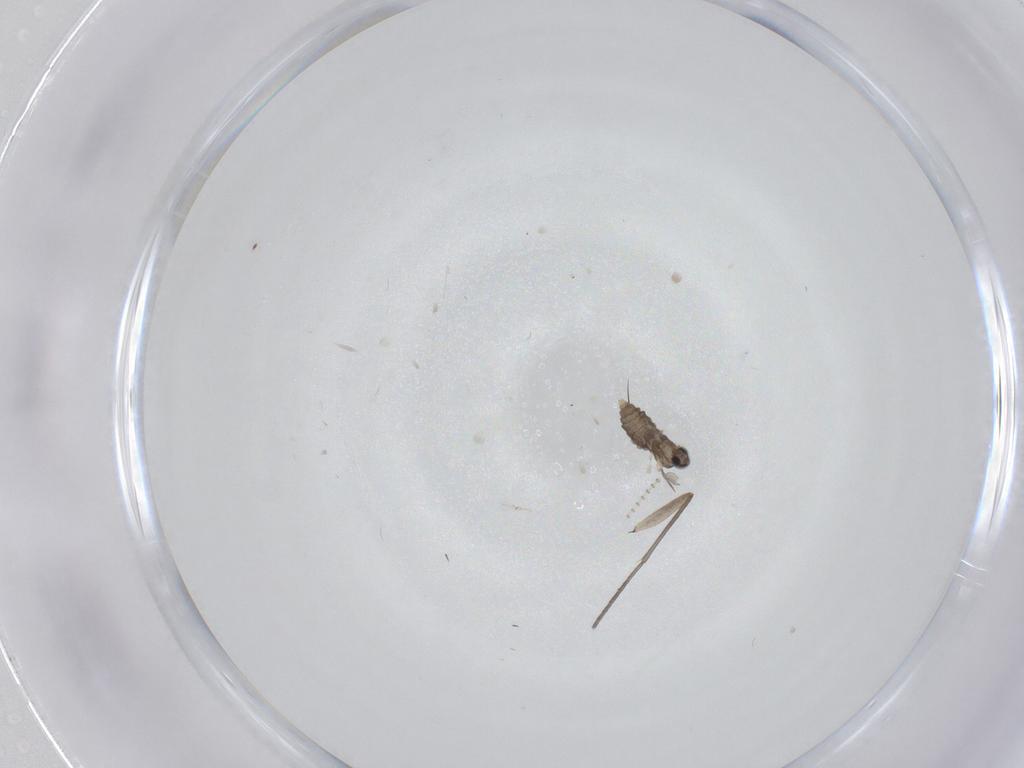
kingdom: Animalia
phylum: Arthropoda
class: Insecta
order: Diptera
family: Cecidomyiidae
